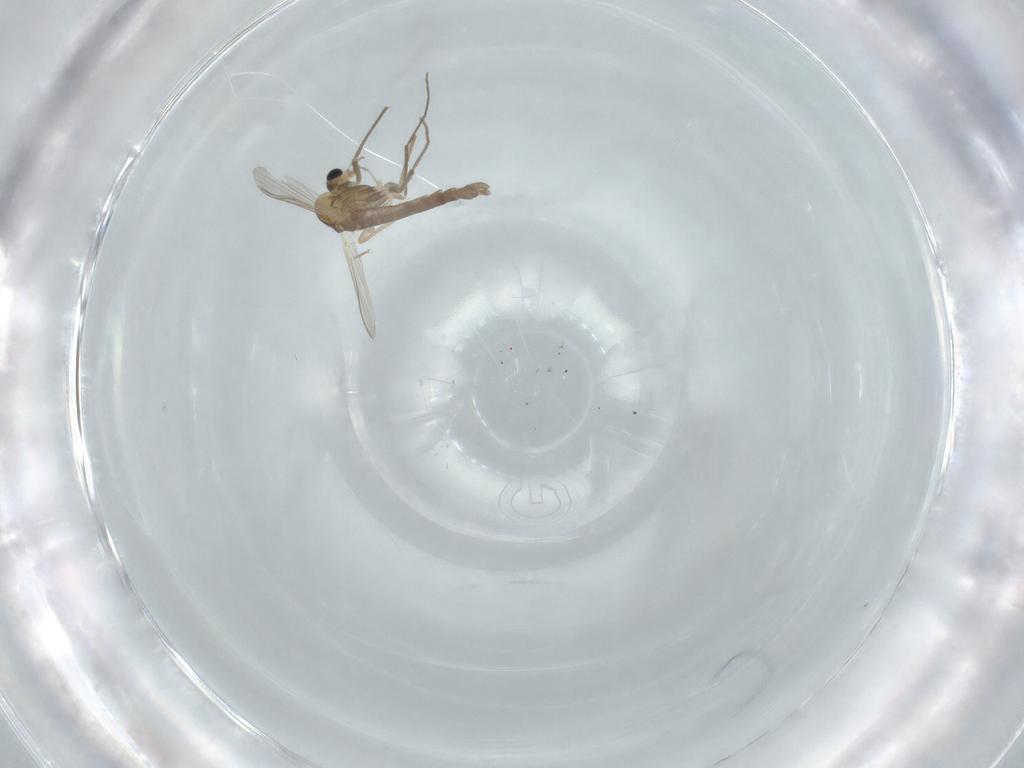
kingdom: Animalia
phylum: Arthropoda
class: Insecta
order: Diptera
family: Chironomidae
